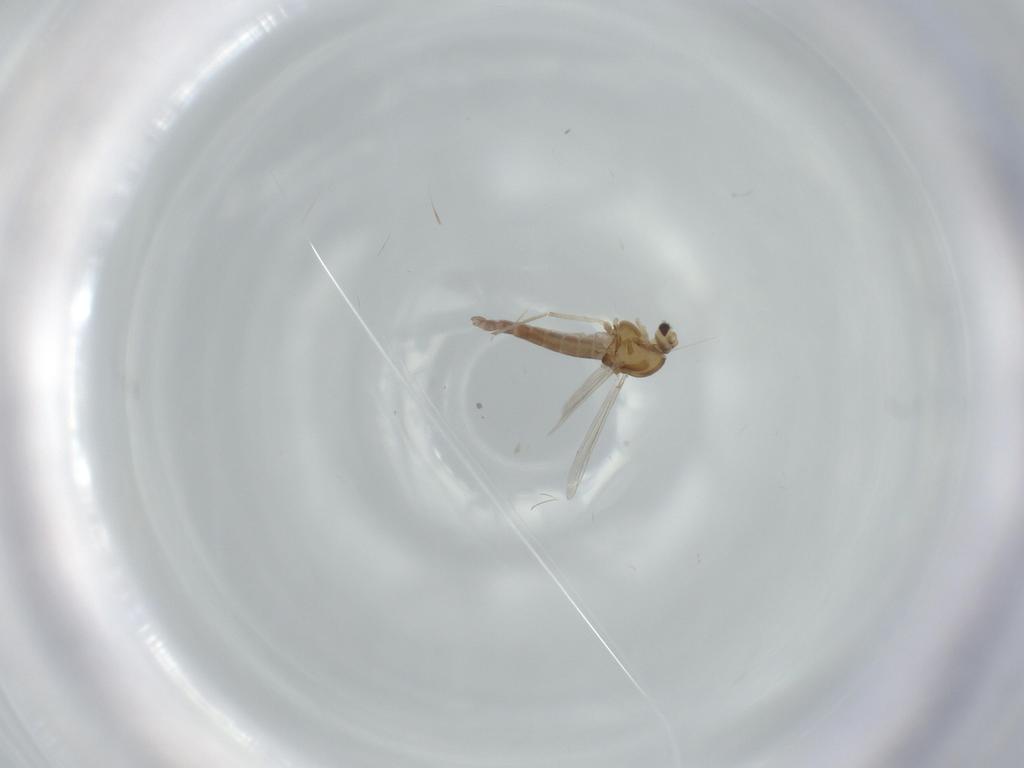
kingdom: Animalia
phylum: Arthropoda
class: Insecta
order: Diptera
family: Chironomidae
